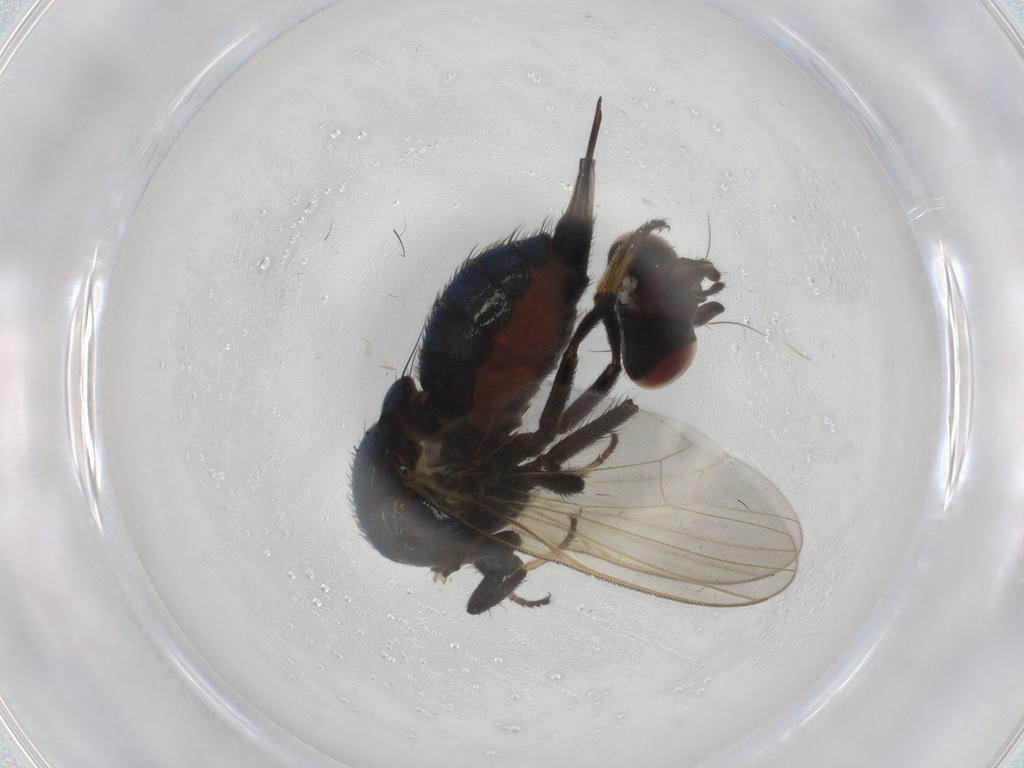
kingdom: Animalia
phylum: Arthropoda
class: Insecta
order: Diptera
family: Lonchaeidae
